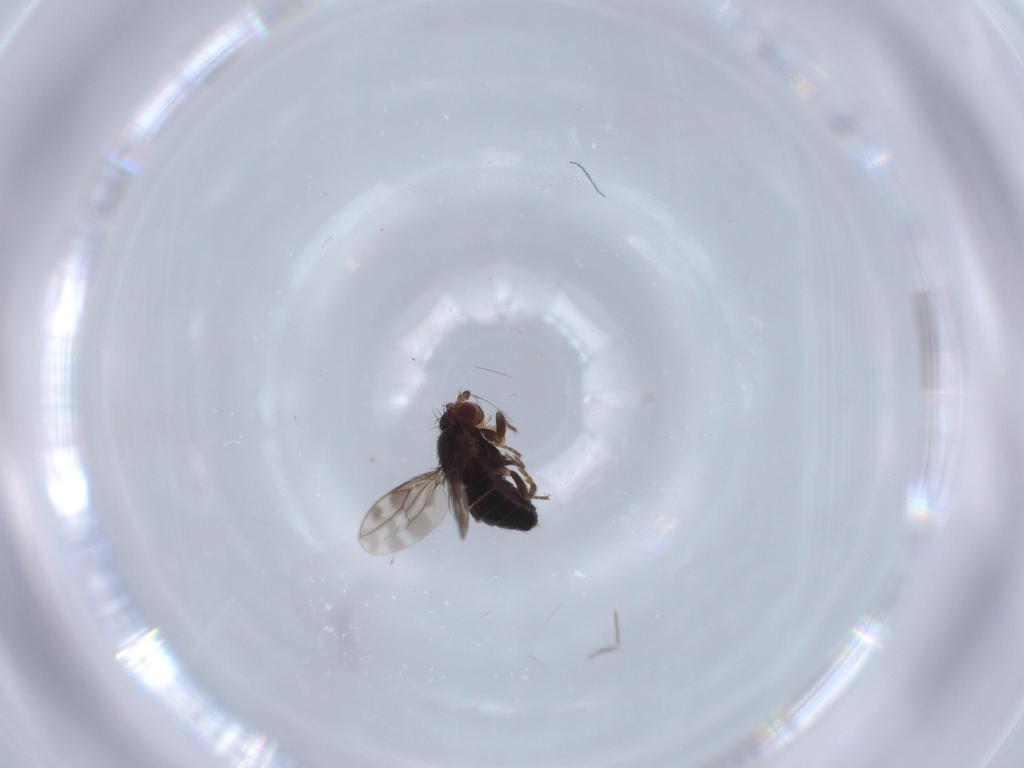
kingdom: Animalia
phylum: Arthropoda
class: Insecta
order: Diptera
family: Sphaeroceridae
